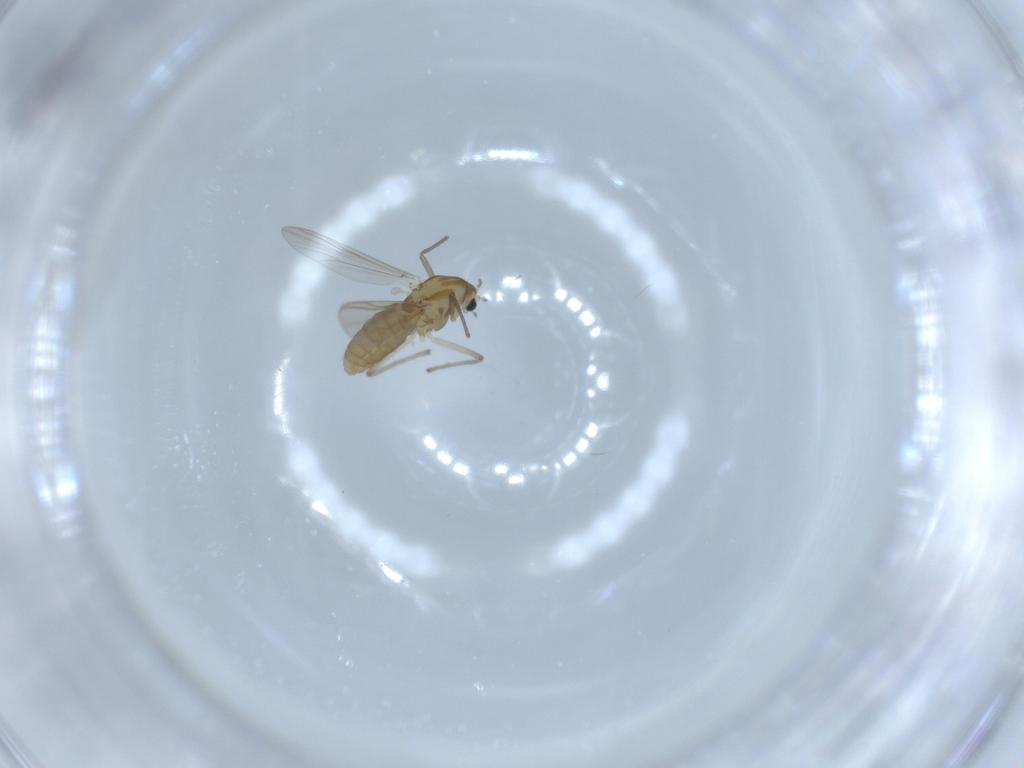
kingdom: Animalia
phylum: Arthropoda
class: Insecta
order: Diptera
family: Chironomidae
